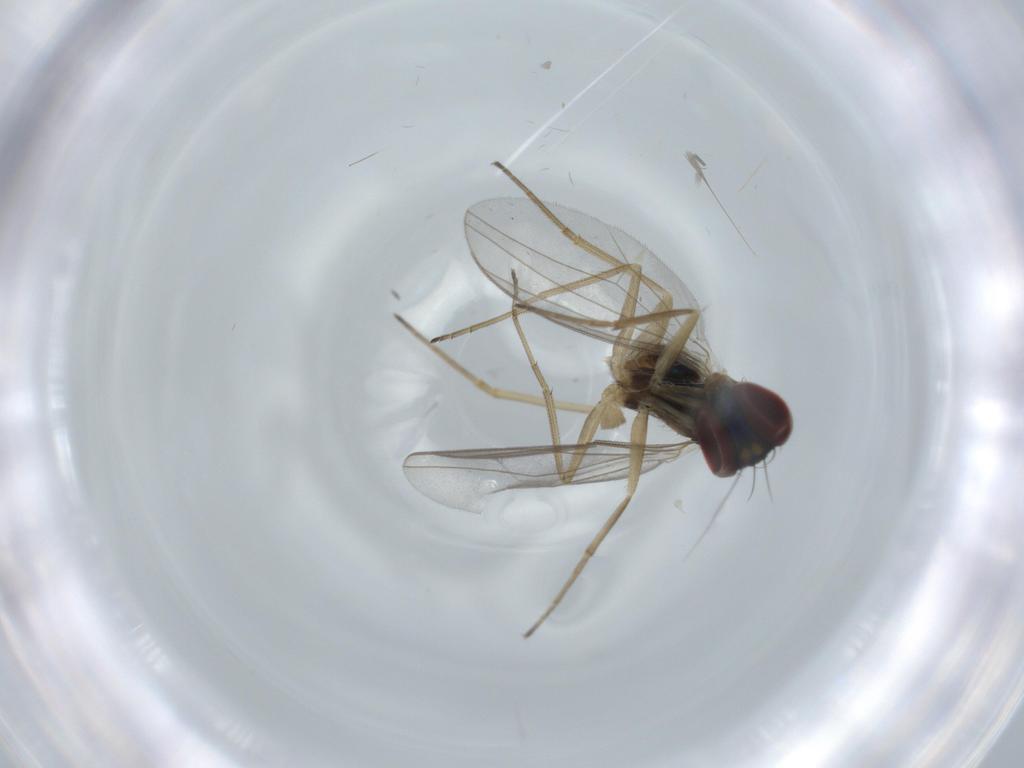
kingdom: Animalia
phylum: Arthropoda
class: Insecta
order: Diptera
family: Dolichopodidae
